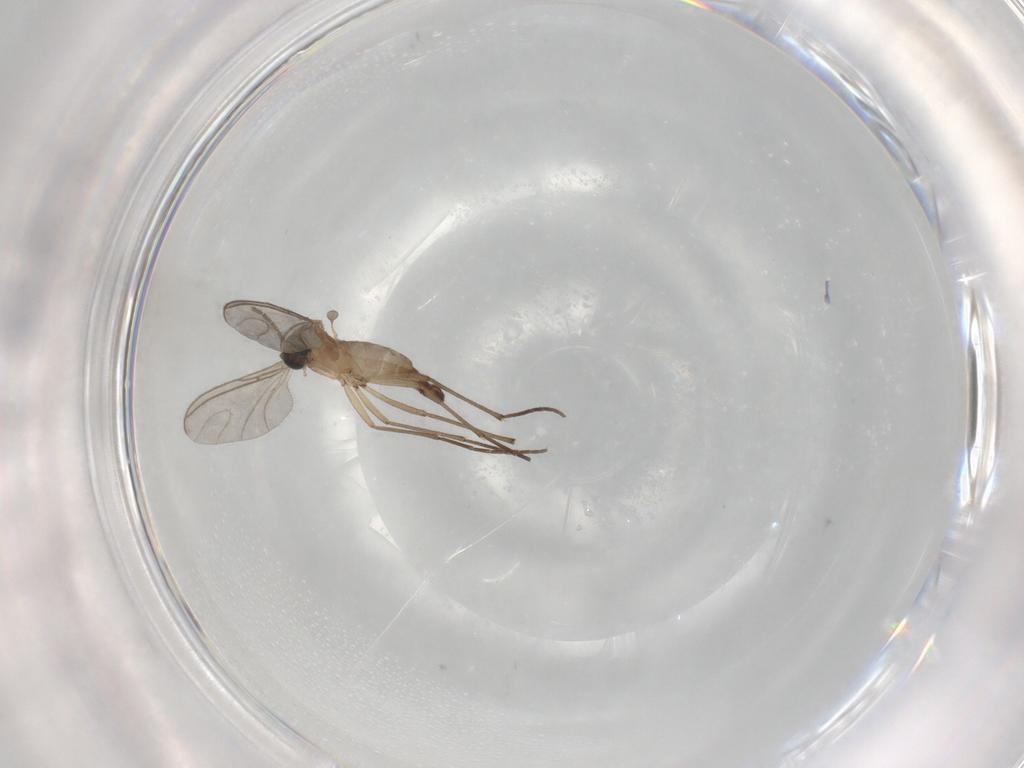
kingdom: Animalia
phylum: Arthropoda
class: Insecta
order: Diptera
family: Sciaridae
